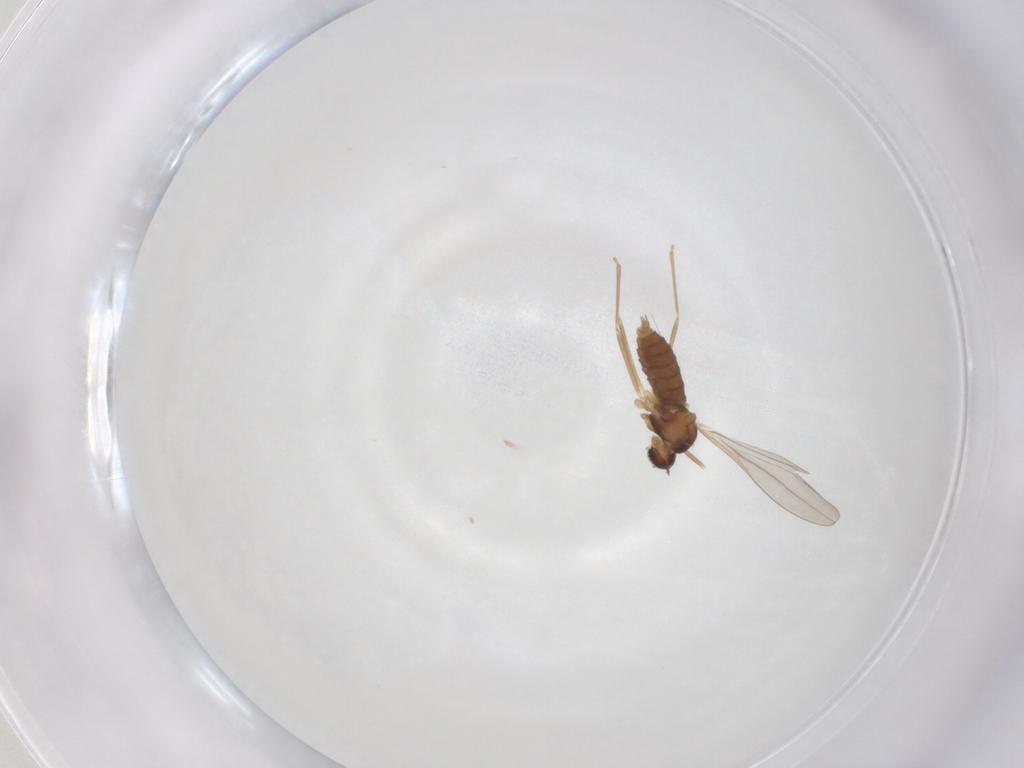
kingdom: Animalia
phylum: Arthropoda
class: Insecta
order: Diptera
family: Cecidomyiidae
